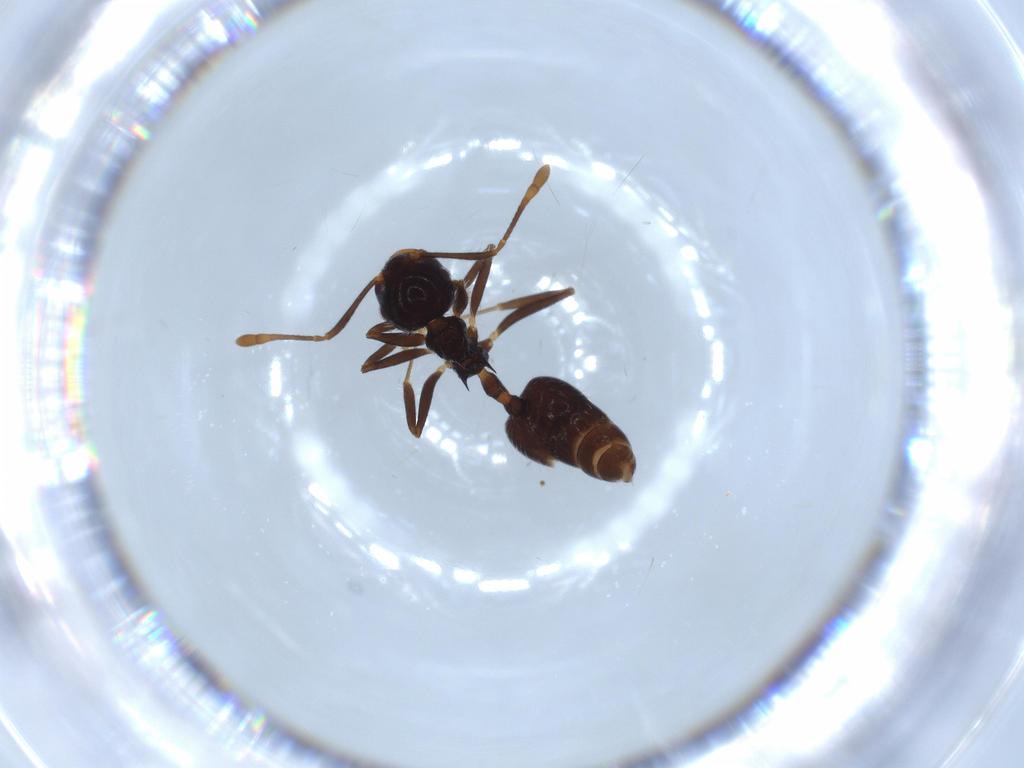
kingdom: Animalia
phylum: Arthropoda
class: Insecta
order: Hymenoptera
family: Formicidae
